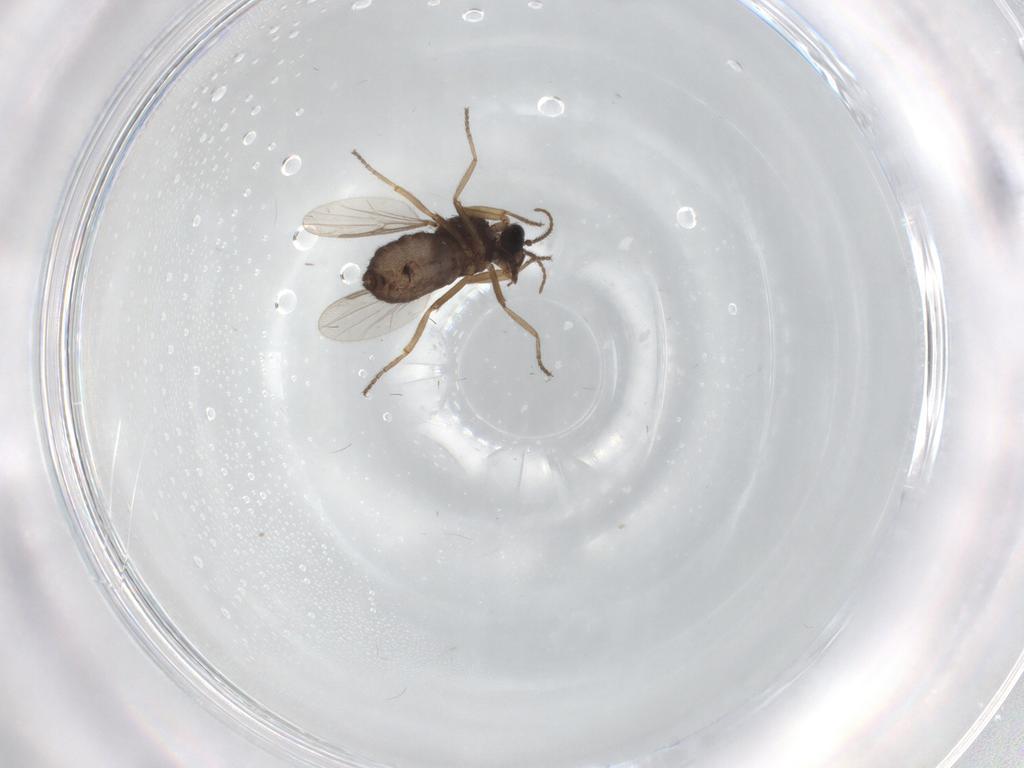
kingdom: Animalia
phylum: Arthropoda
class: Insecta
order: Diptera
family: Ceratopogonidae
